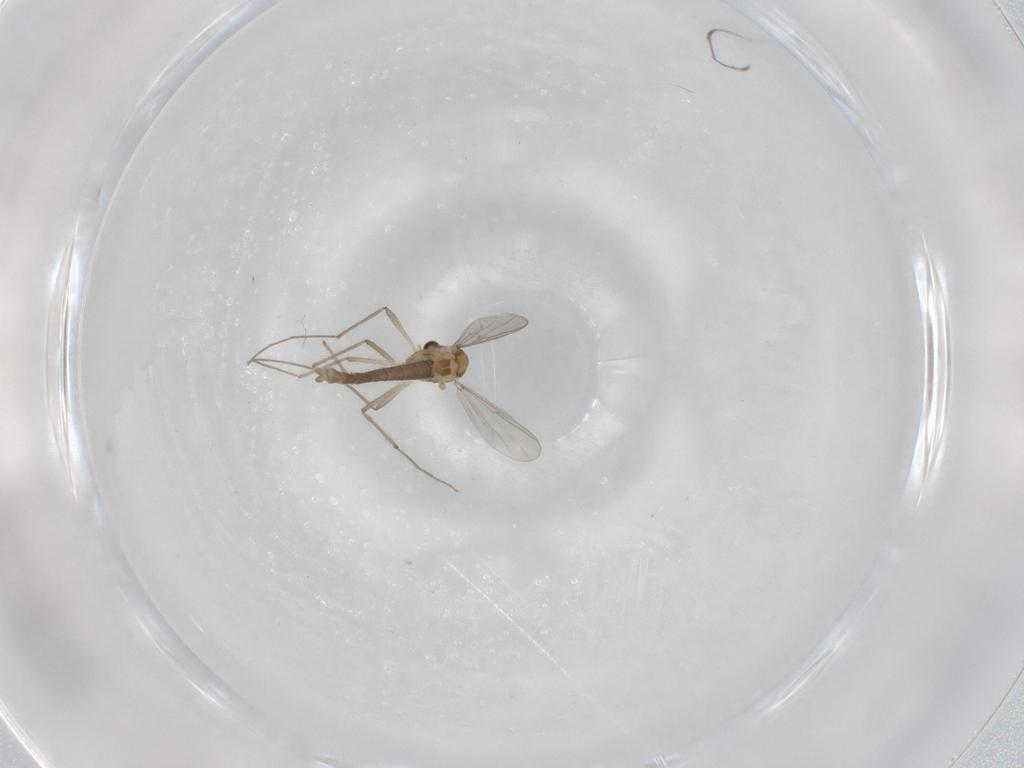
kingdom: Animalia
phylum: Arthropoda
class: Insecta
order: Diptera
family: Chironomidae
